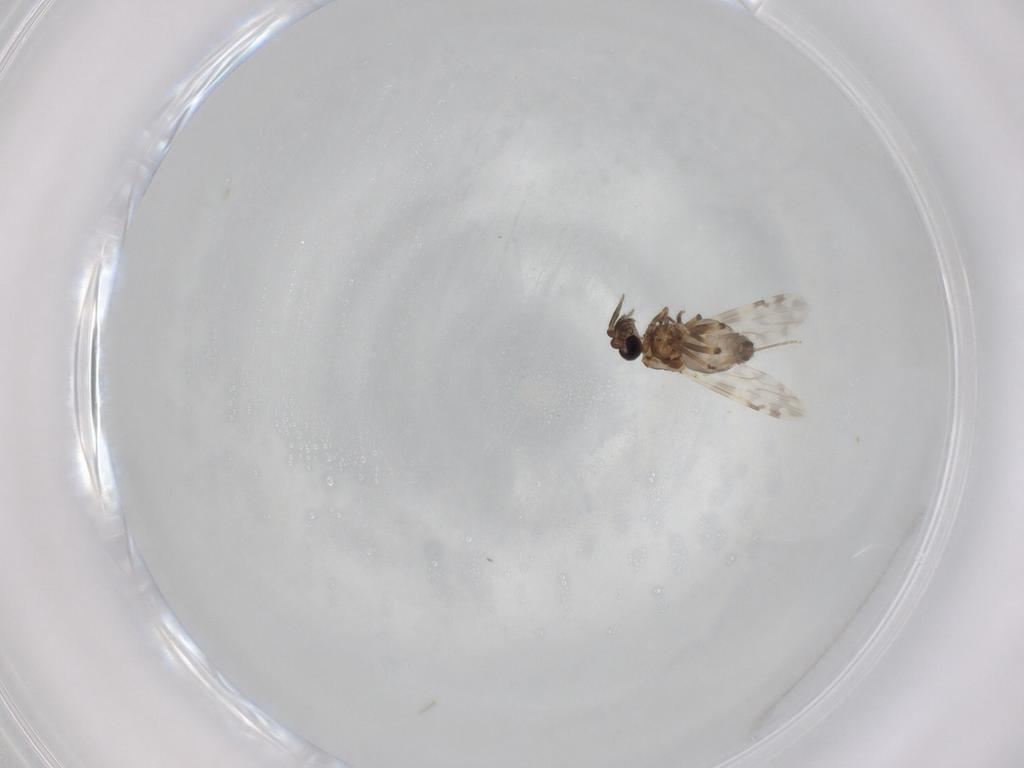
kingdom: Animalia
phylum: Arthropoda
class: Insecta
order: Diptera
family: Ceratopogonidae
